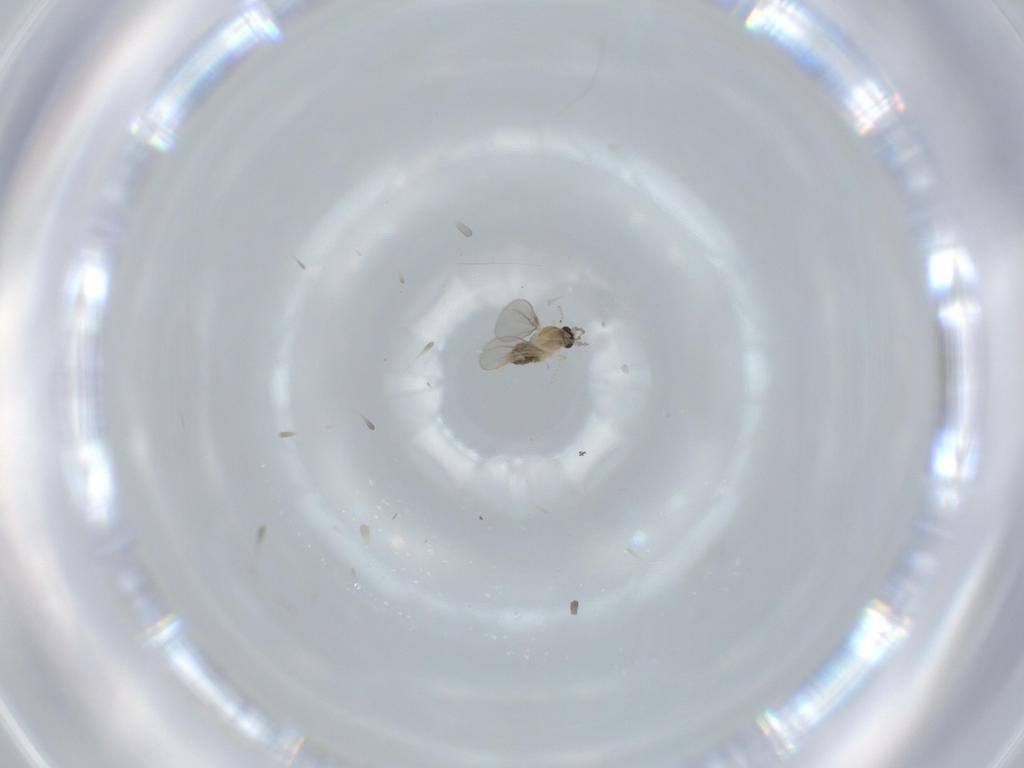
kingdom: Animalia
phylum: Arthropoda
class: Insecta
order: Diptera
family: Cecidomyiidae
